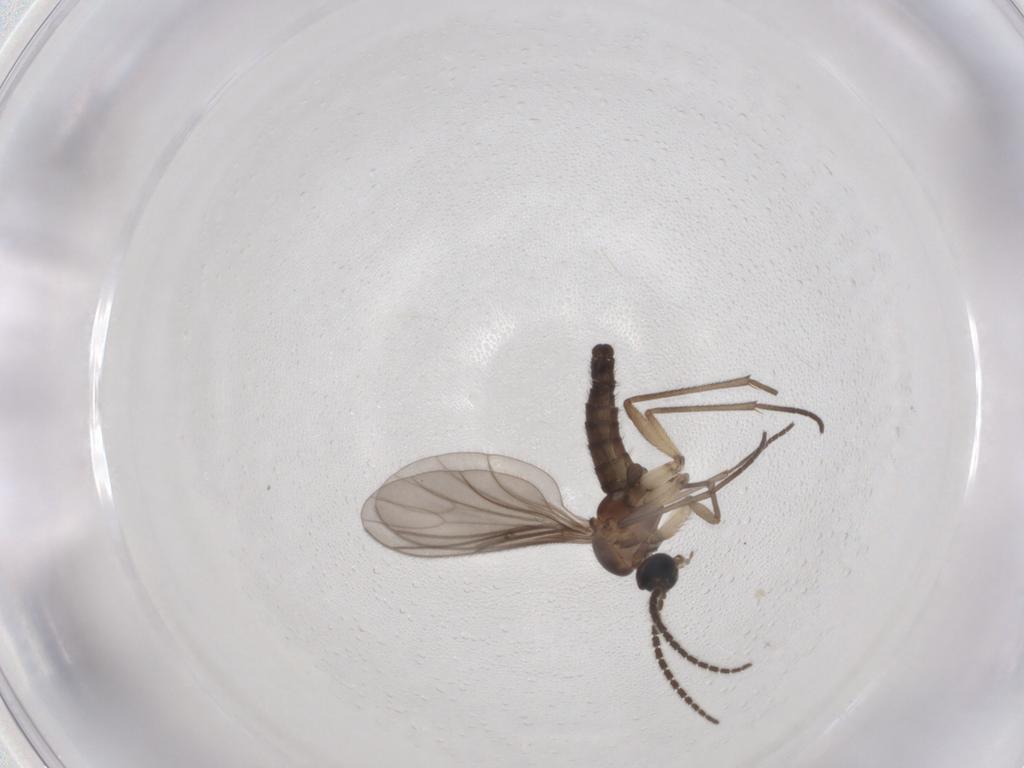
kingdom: Animalia
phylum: Arthropoda
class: Insecta
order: Diptera
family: Sciaridae
